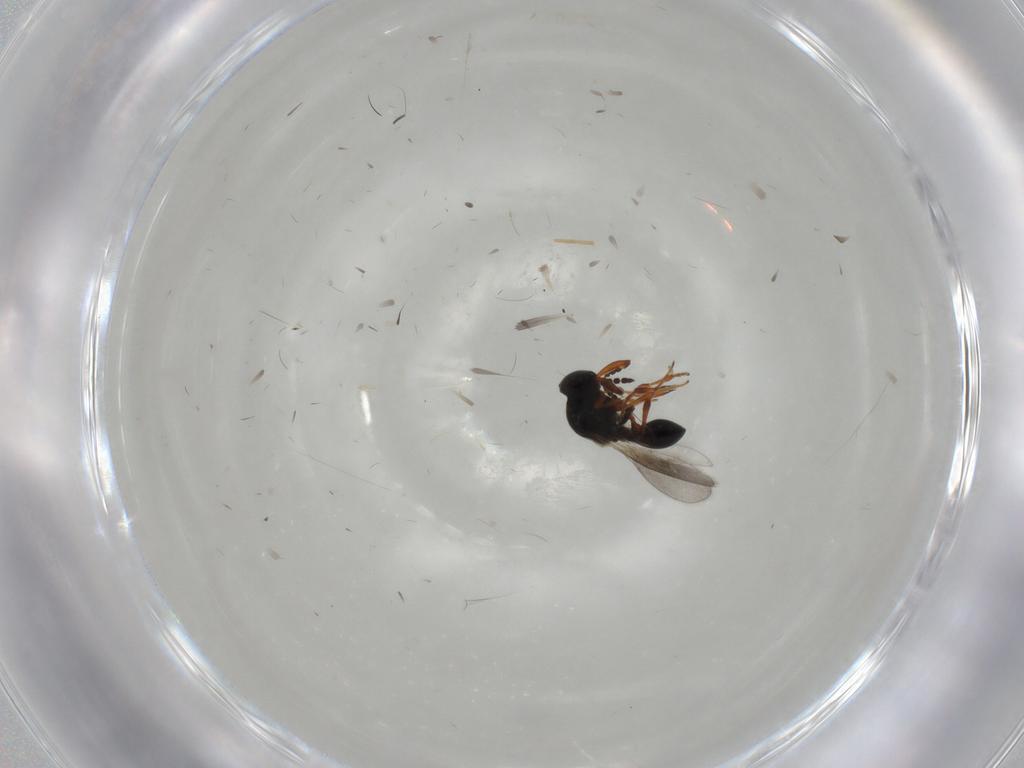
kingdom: Animalia
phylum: Arthropoda
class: Insecta
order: Hymenoptera
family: Platygastridae
